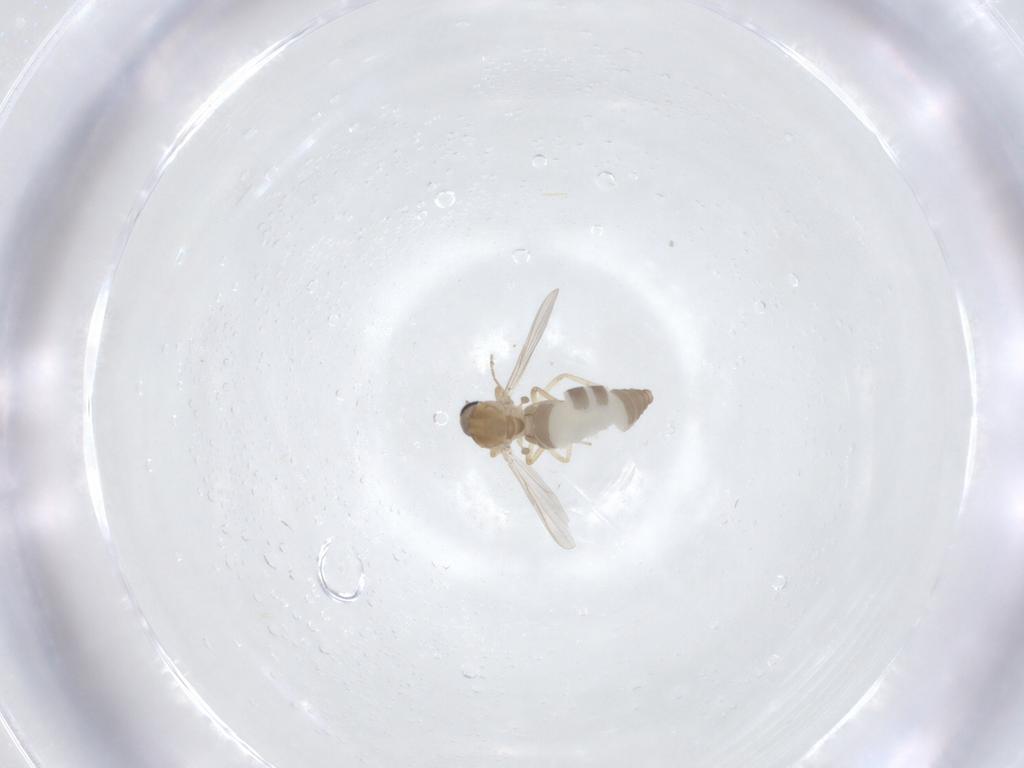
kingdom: Animalia
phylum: Arthropoda
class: Insecta
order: Diptera
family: Ceratopogonidae
